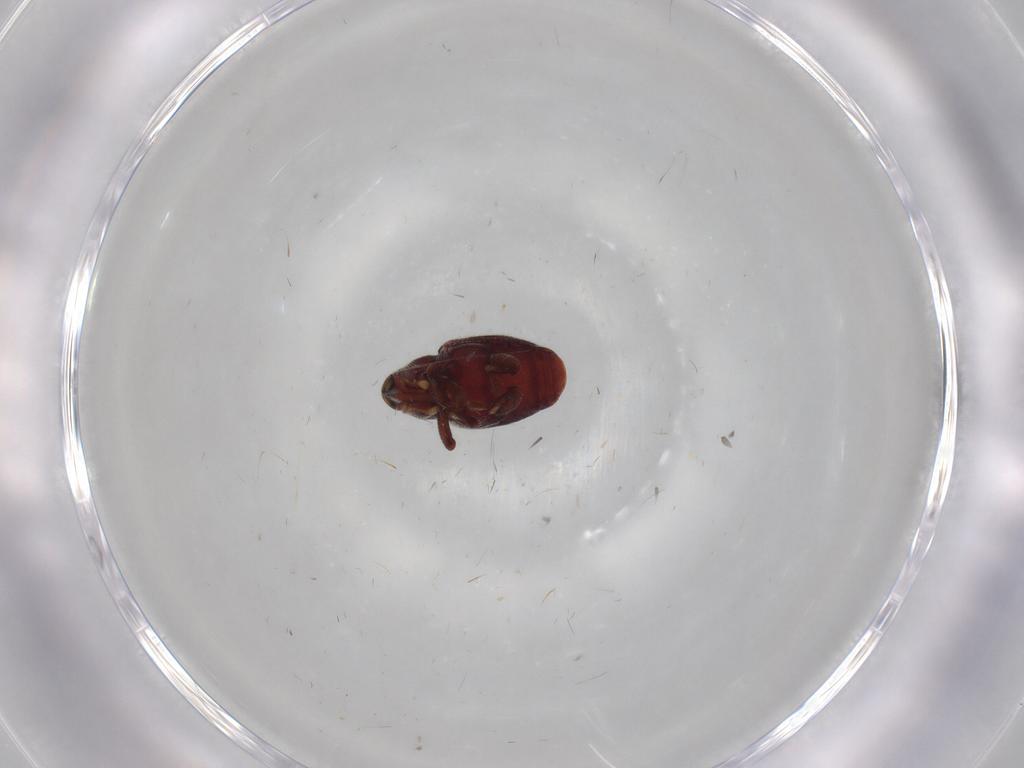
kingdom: Animalia
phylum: Arthropoda
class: Insecta
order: Coleoptera
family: Curculionidae
